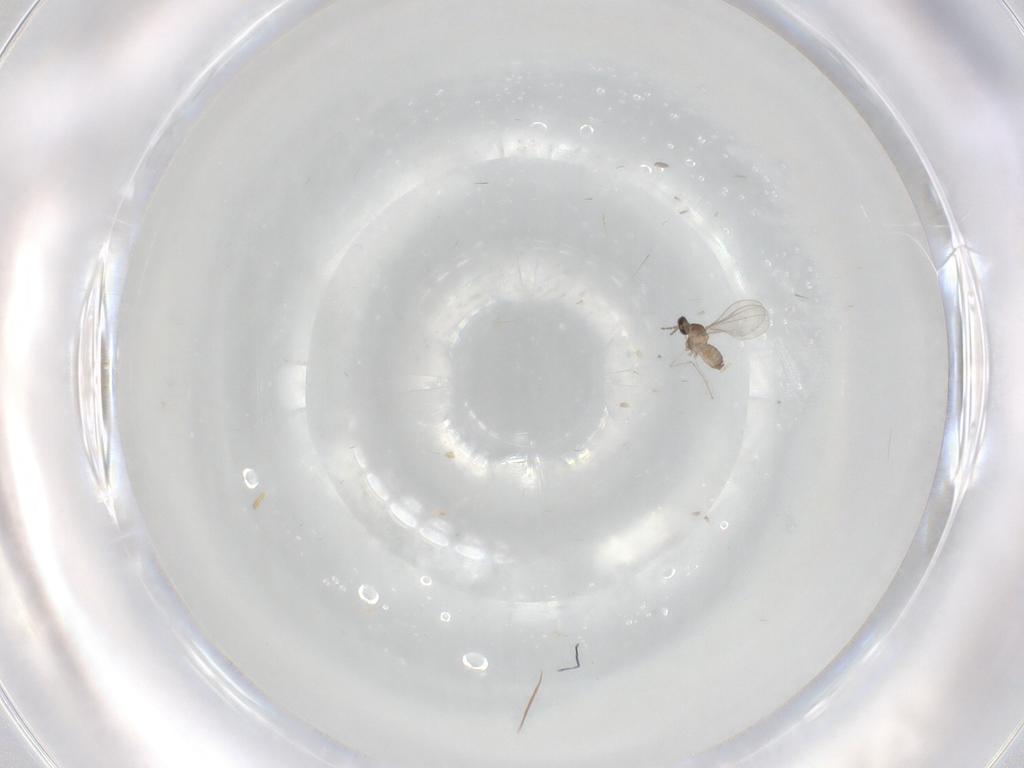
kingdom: Animalia
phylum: Arthropoda
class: Insecta
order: Diptera
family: Cecidomyiidae
